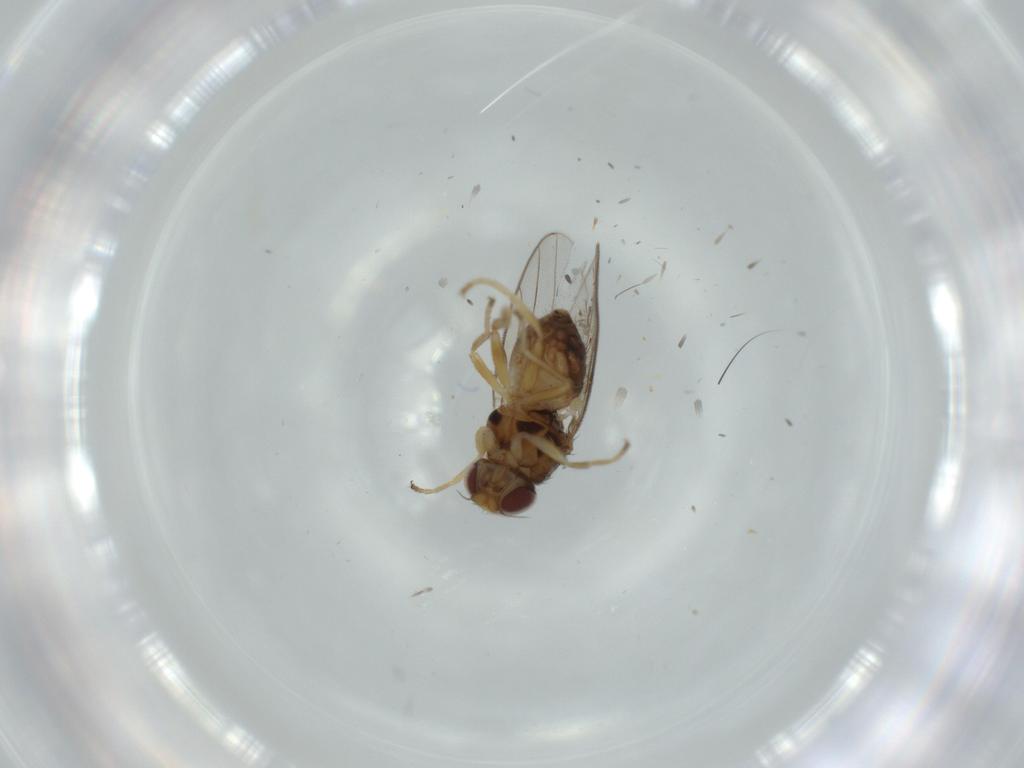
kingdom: Animalia
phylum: Arthropoda
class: Insecta
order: Diptera
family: Chloropidae
